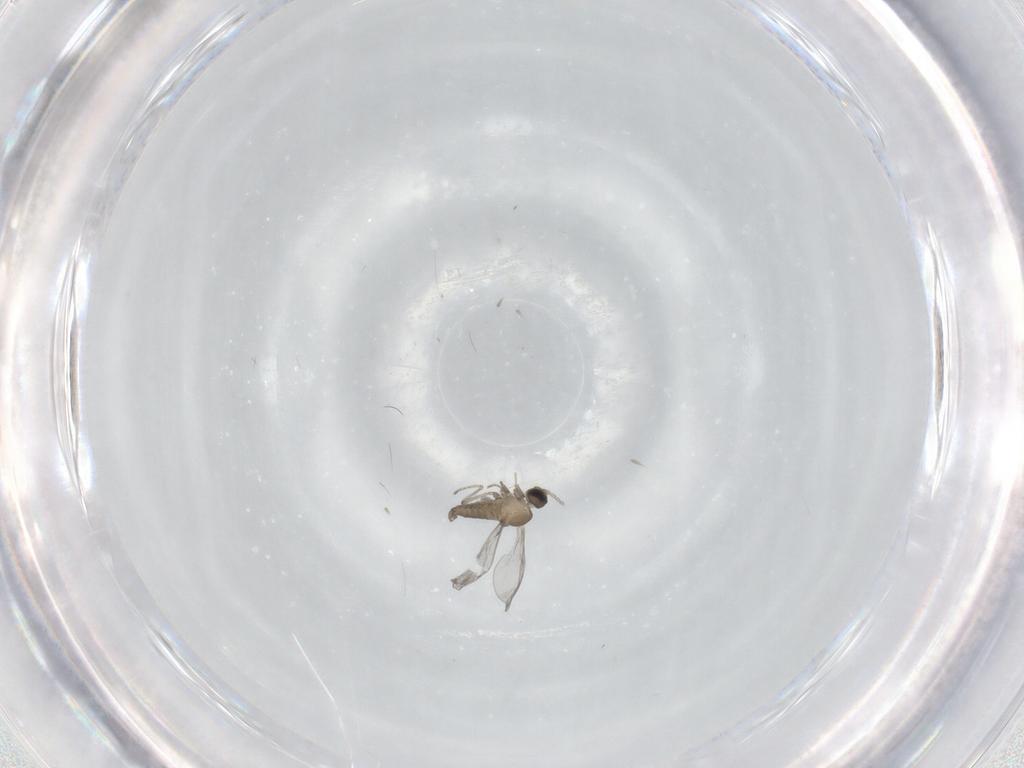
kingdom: Animalia
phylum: Arthropoda
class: Insecta
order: Diptera
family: Cecidomyiidae
